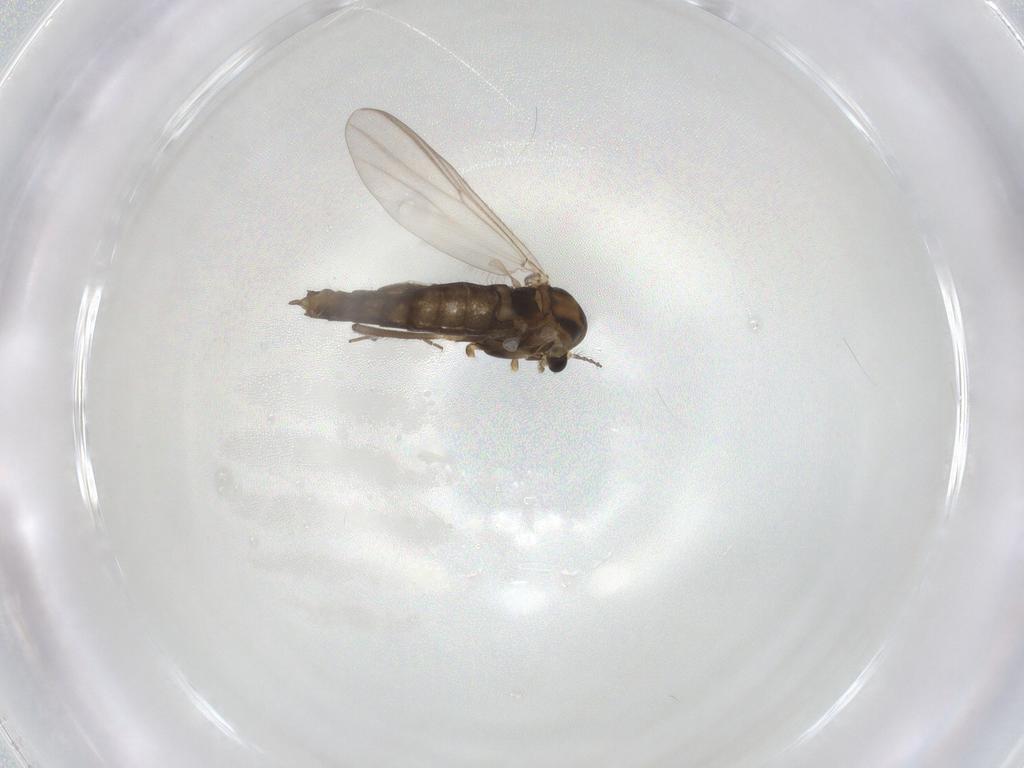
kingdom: Animalia
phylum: Arthropoda
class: Insecta
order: Diptera
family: Chironomidae
